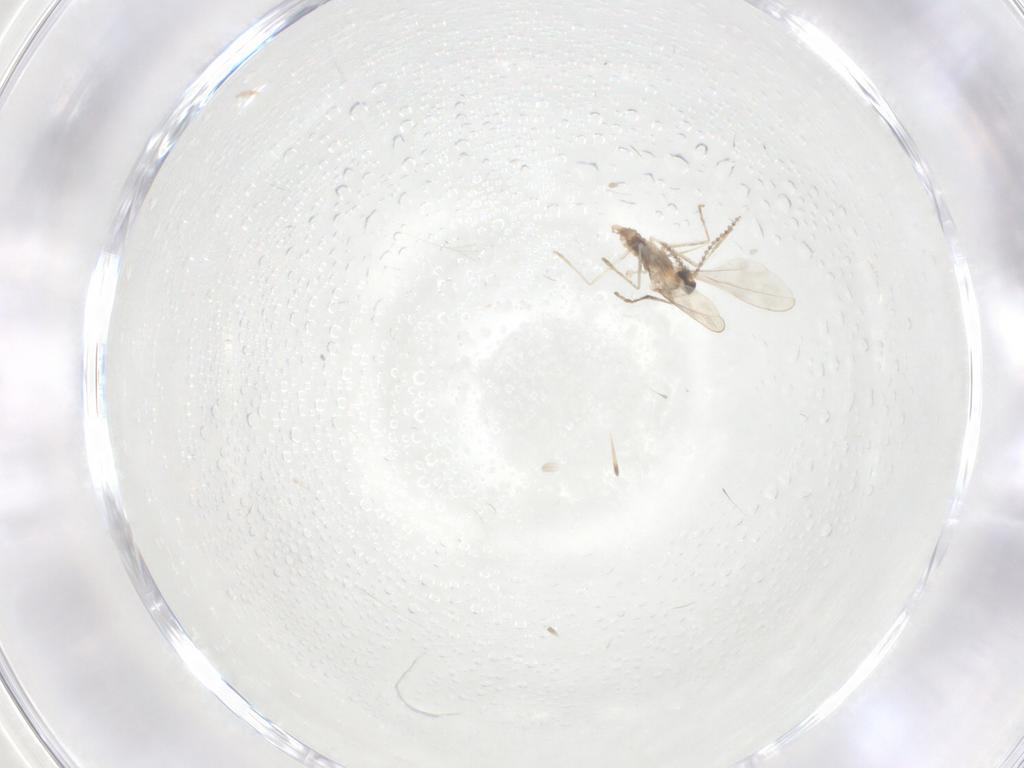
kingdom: Animalia
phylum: Arthropoda
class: Insecta
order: Diptera
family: Cecidomyiidae
